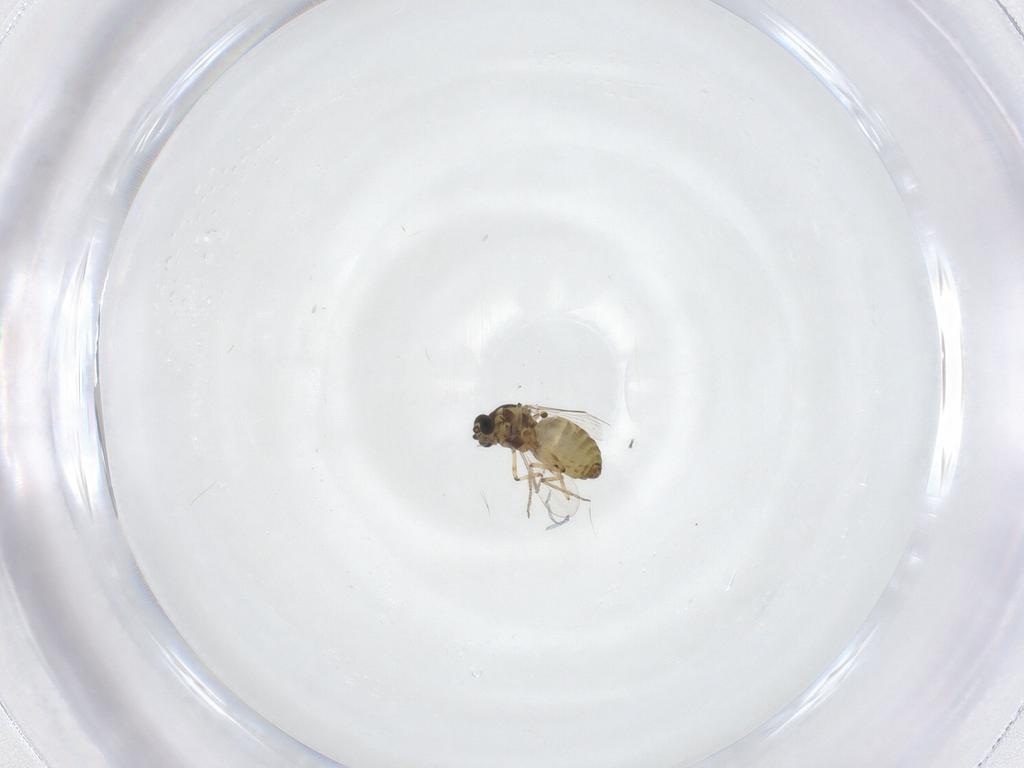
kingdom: Animalia
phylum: Arthropoda
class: Insecta
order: Diptera
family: Ceratopogonidae
